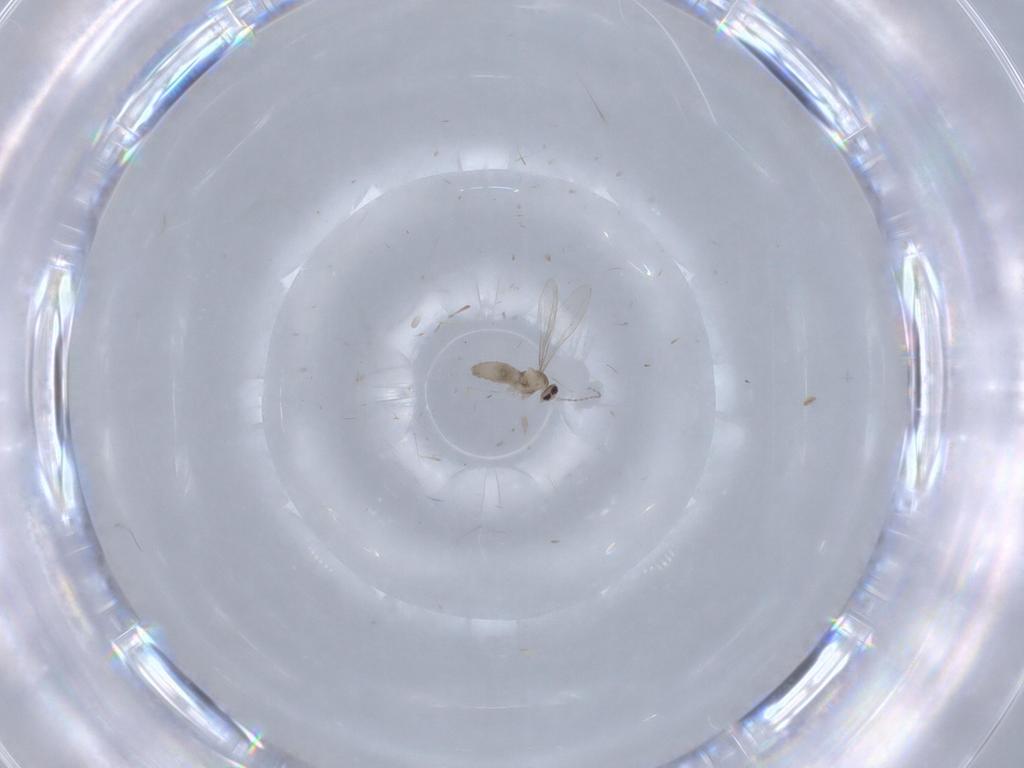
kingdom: Animalia
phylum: Arthropoda
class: Insecta
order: Diptera
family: Cecidomyiidae
